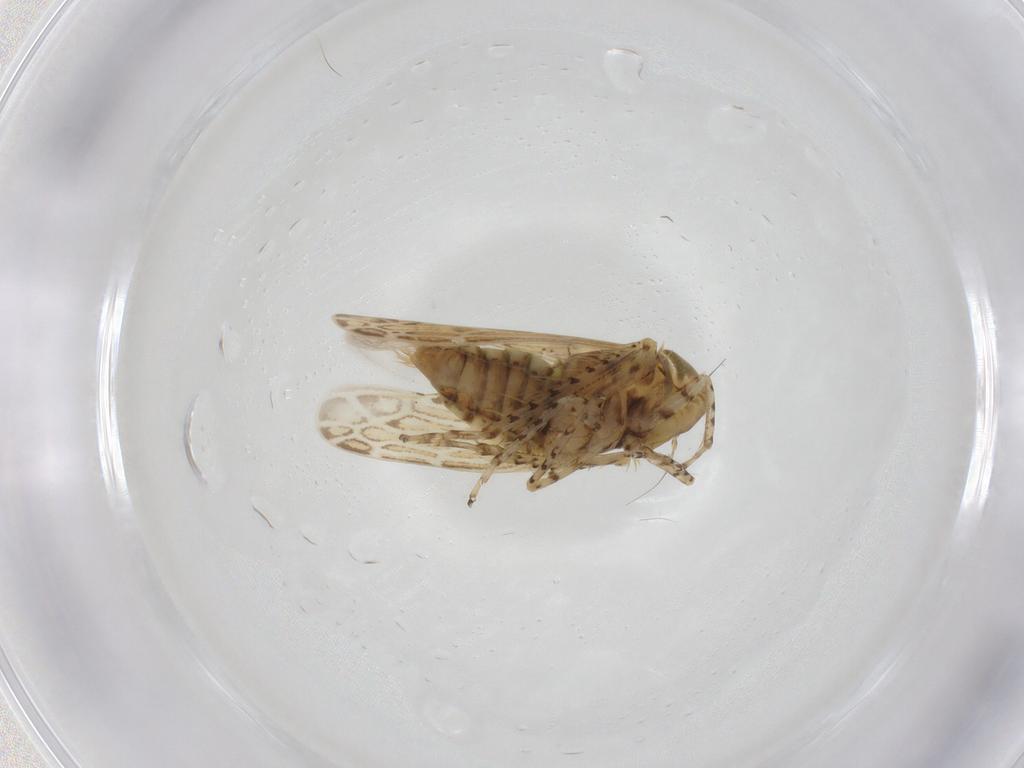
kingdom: Animalia
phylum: Arthropoda
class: Insecta
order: Hemiptera
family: Cicadellidae
